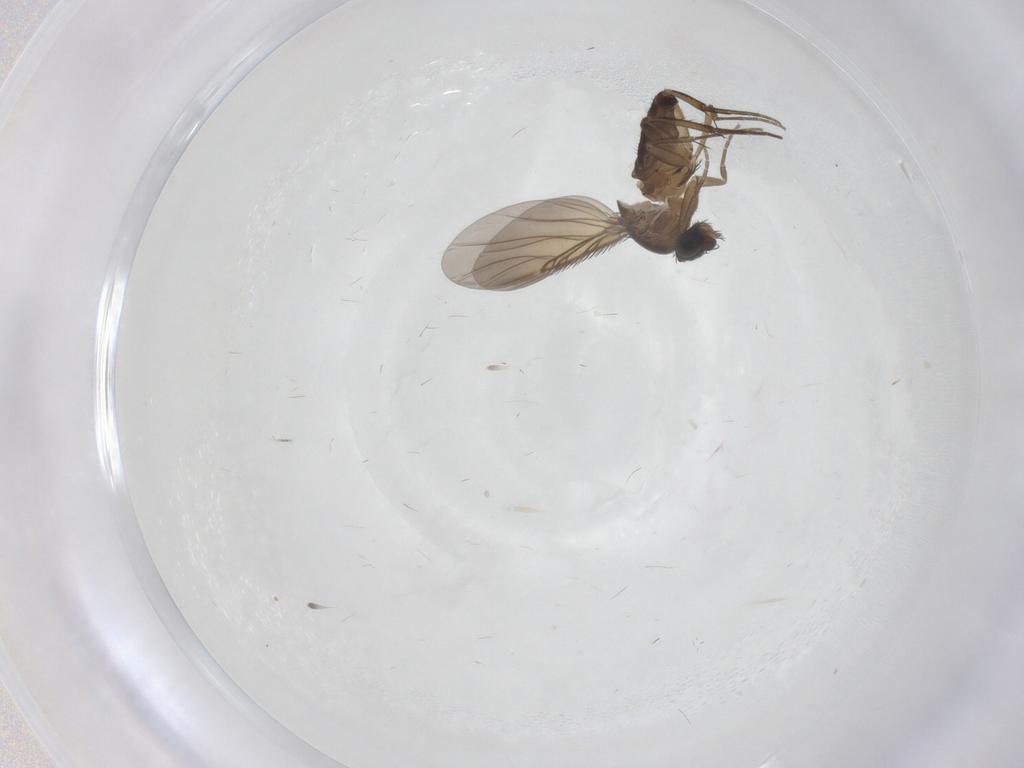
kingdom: Animalia
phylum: Arthropoda
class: Insecta
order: Diptera
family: Phoridae
